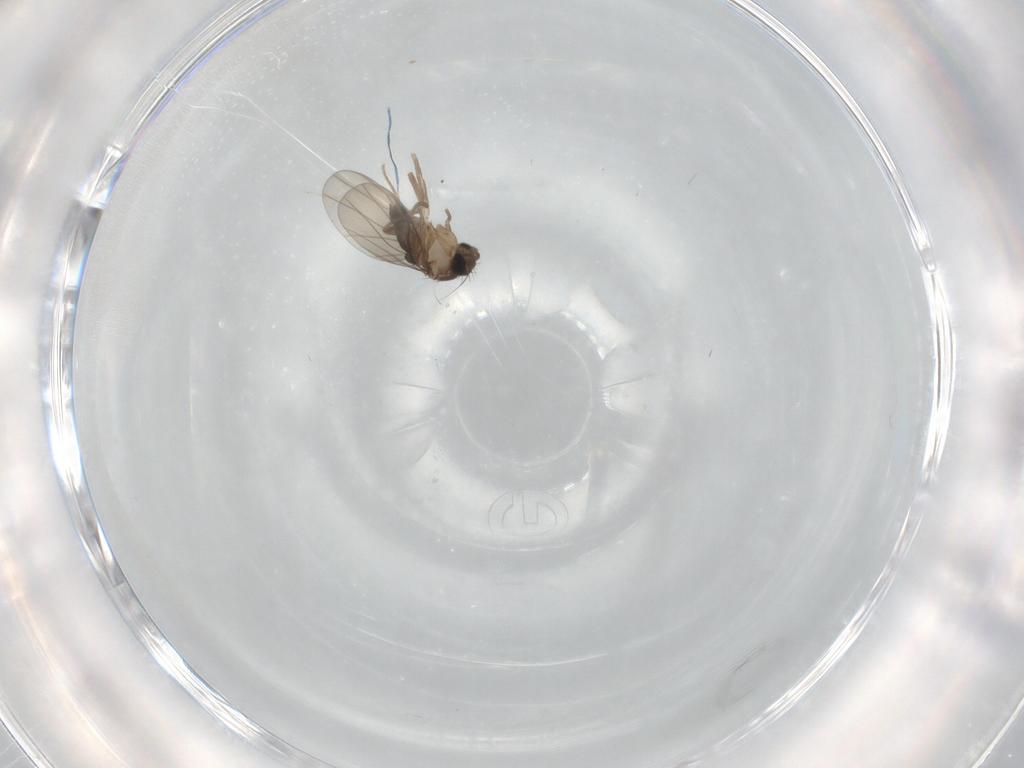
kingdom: Animalia
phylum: Arthropoda
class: Insecta
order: Diptera
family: Phoridae
